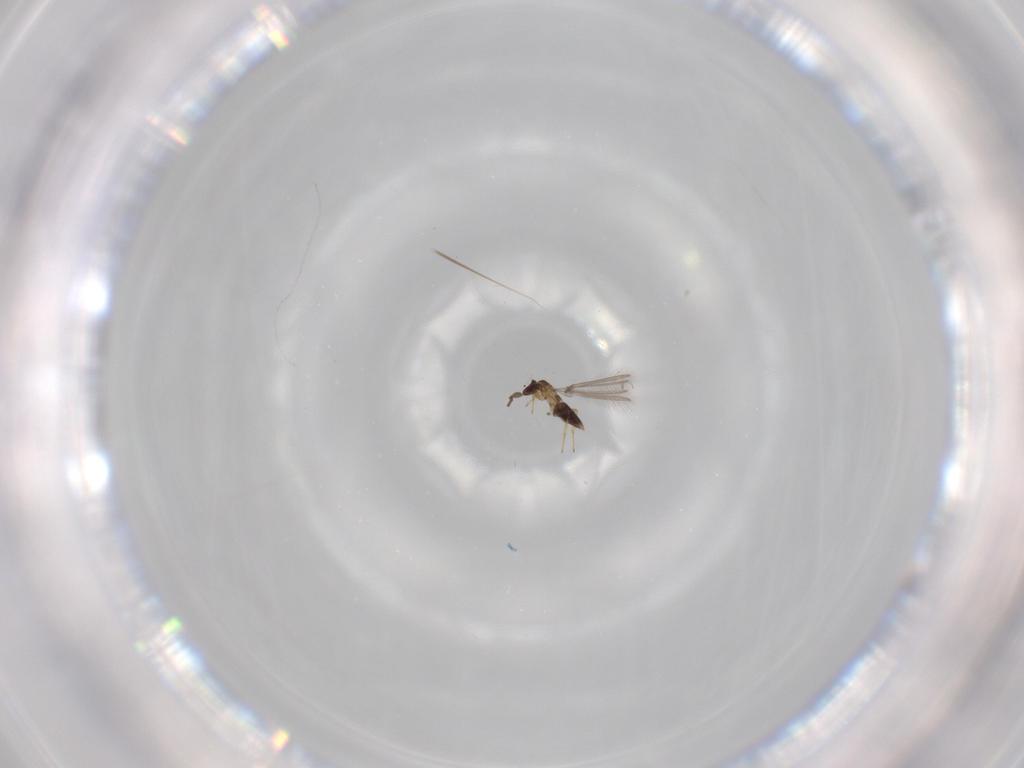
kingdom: Animalia
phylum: Arthropoda
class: Insecta
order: Hymenoptera
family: Mymaridae
